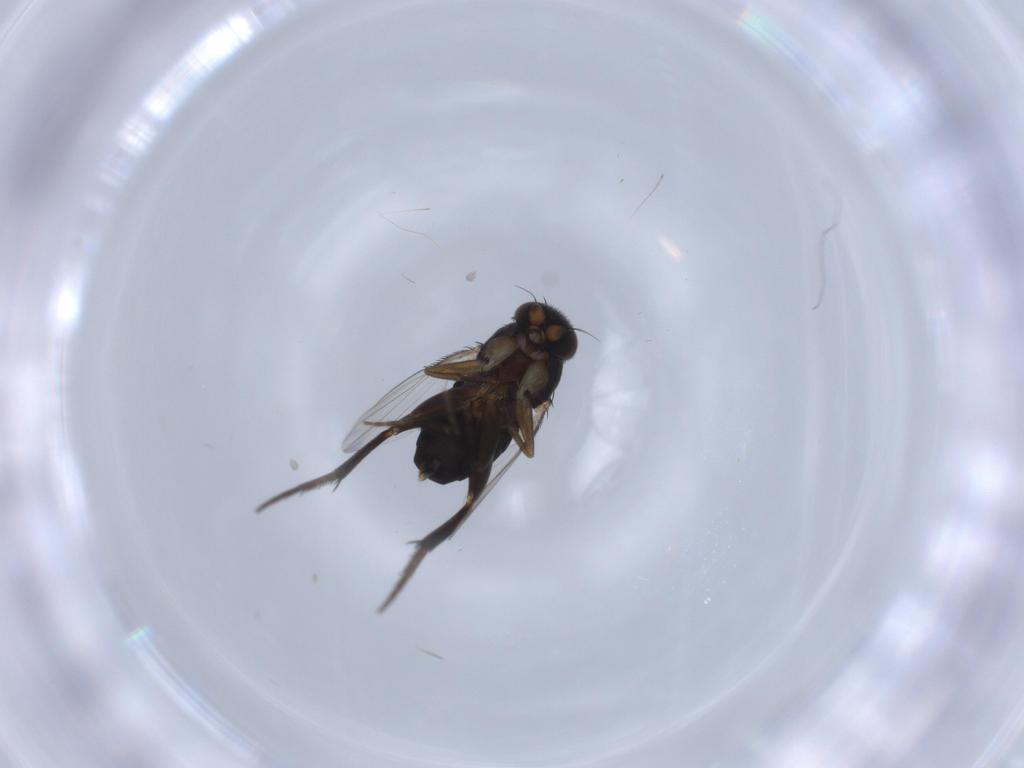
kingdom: Animalia
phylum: Arthropoda
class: Insecta
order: Diptera
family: Phoridae
